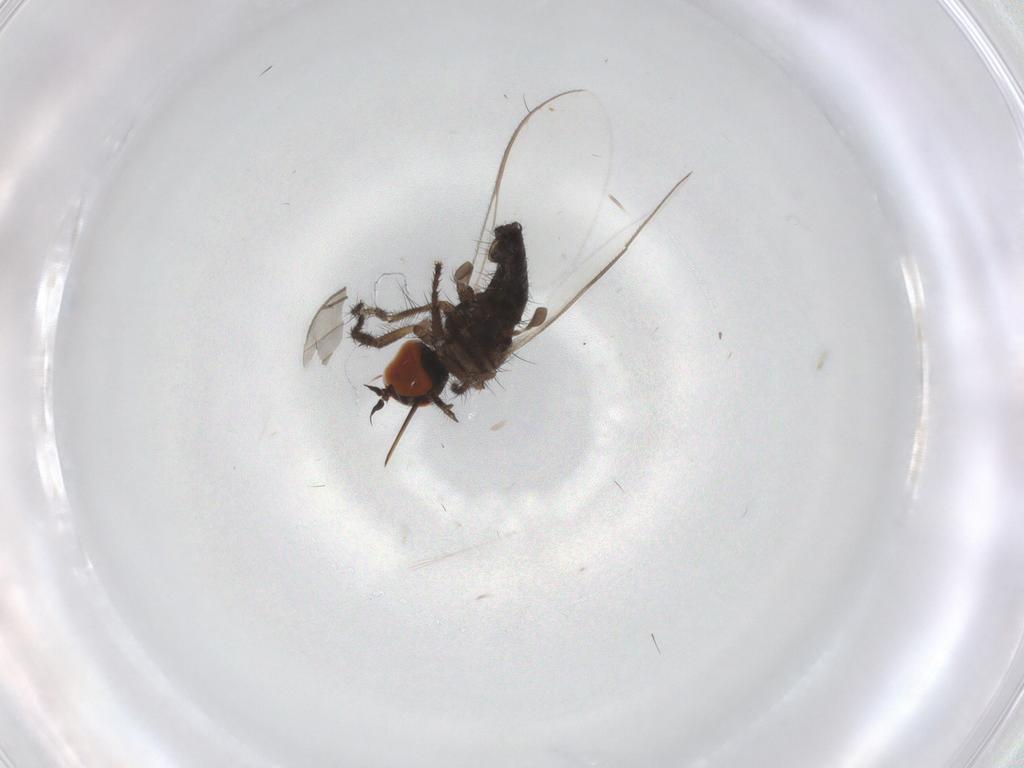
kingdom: Animalia
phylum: Arthropoda
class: Insecta
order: Diptera
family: Empididae
